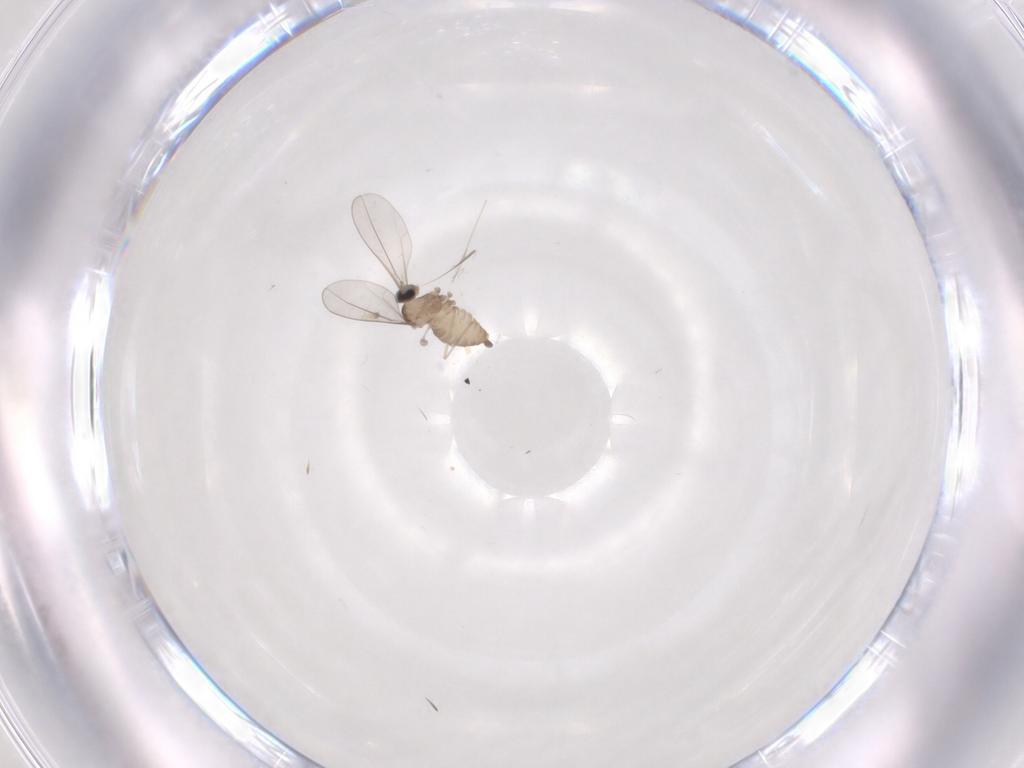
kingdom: Animalia
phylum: Arthropoda
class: Insecta
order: Diptera
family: Cecidomyiidae
